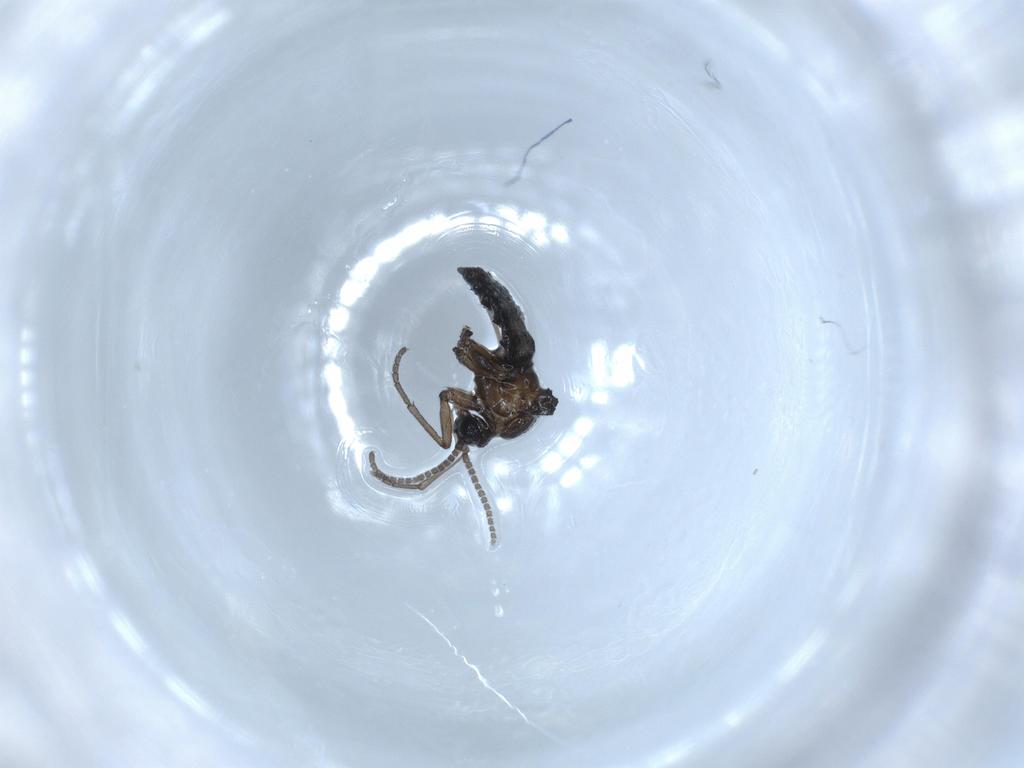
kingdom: Animalia
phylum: Arthropoda
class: Insecta
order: Diptera
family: Sciaridae
